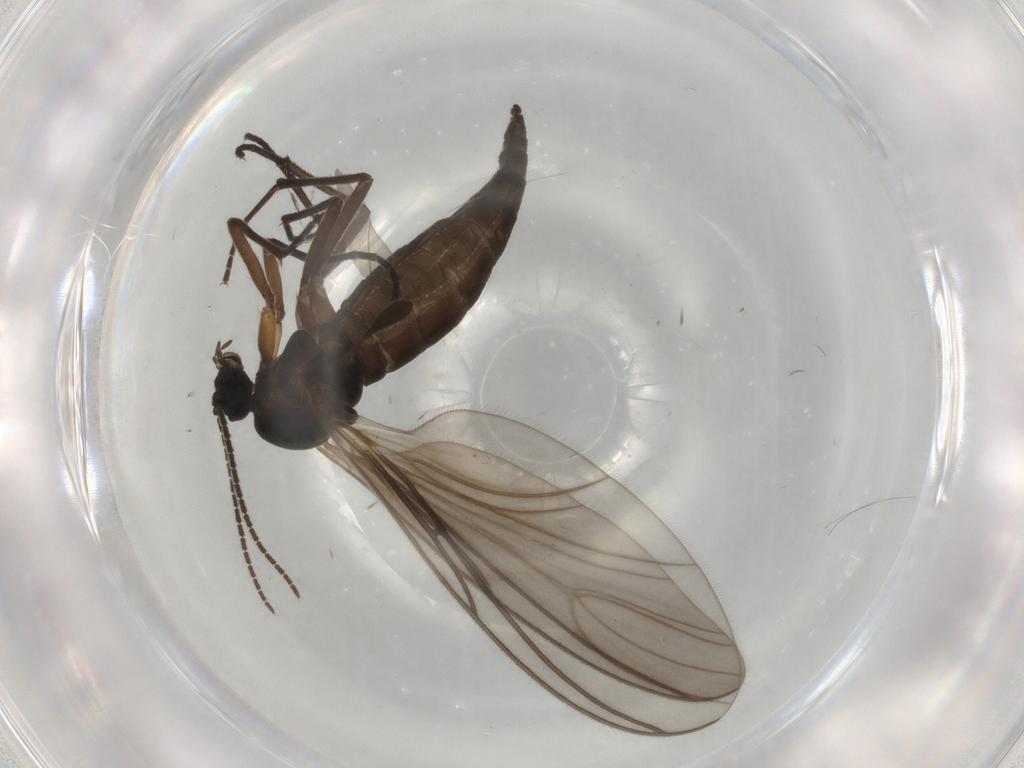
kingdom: Animalia
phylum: Arthropoda
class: Insecta
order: Diptera
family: Sciaridae
